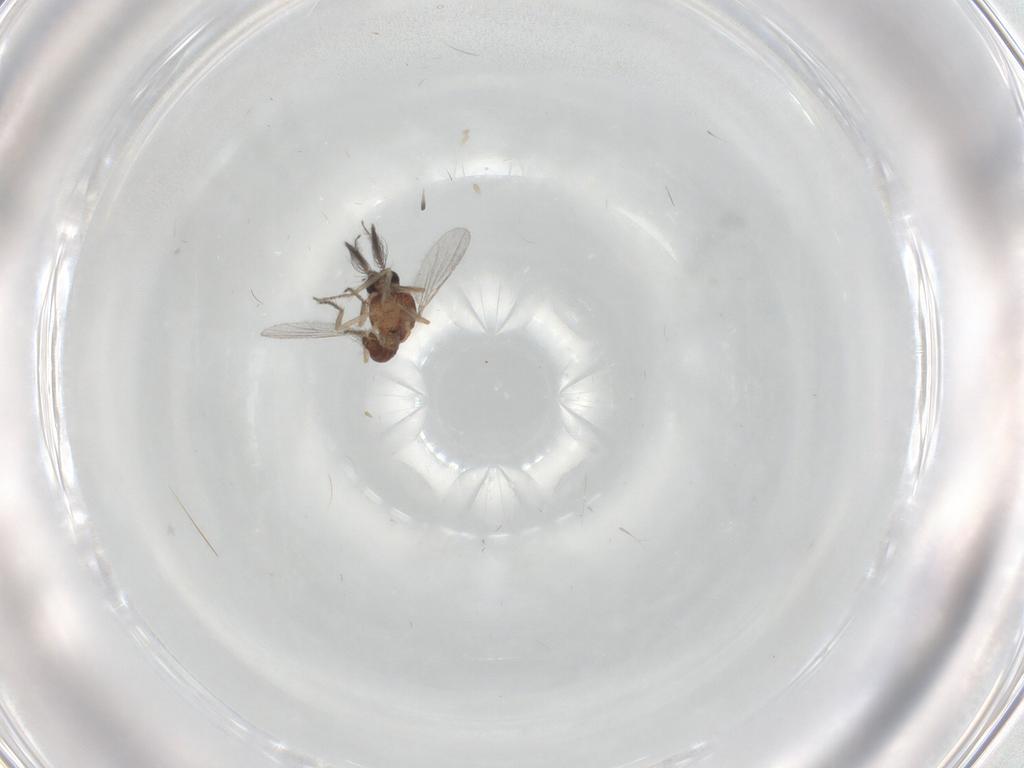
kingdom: Animalia
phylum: Arthropoda
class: Insecta
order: Diptera
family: Ceratopogonidae
